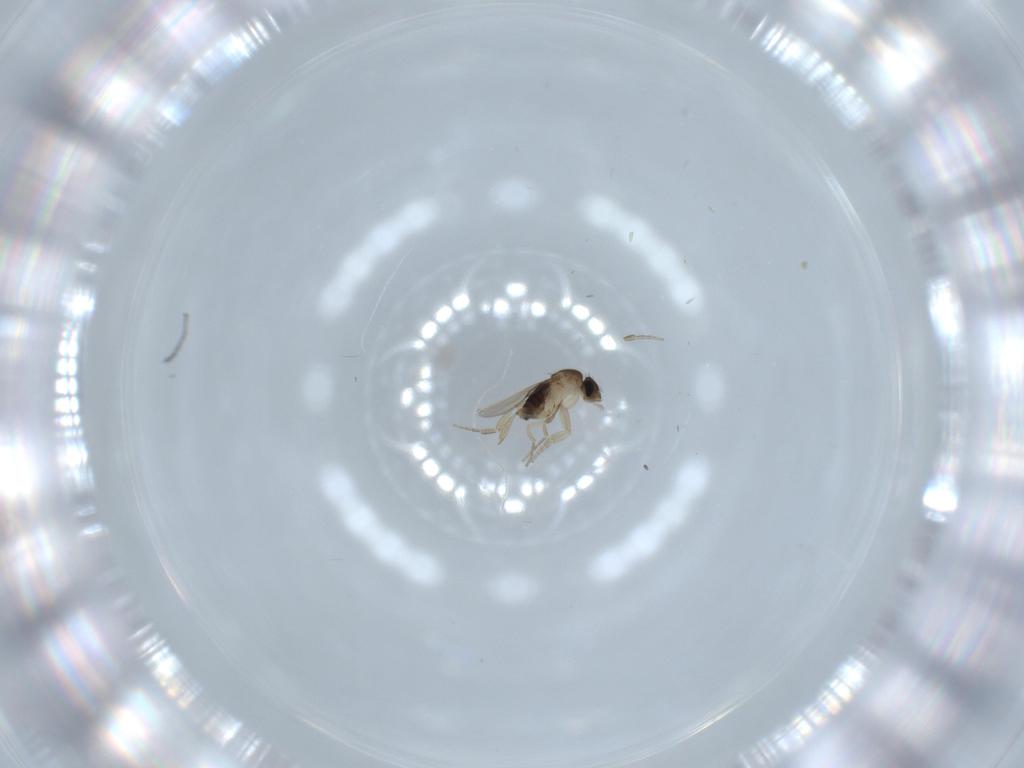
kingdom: Animalia
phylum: Arthropoda
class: Insecta
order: Diptera
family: Phoridae
